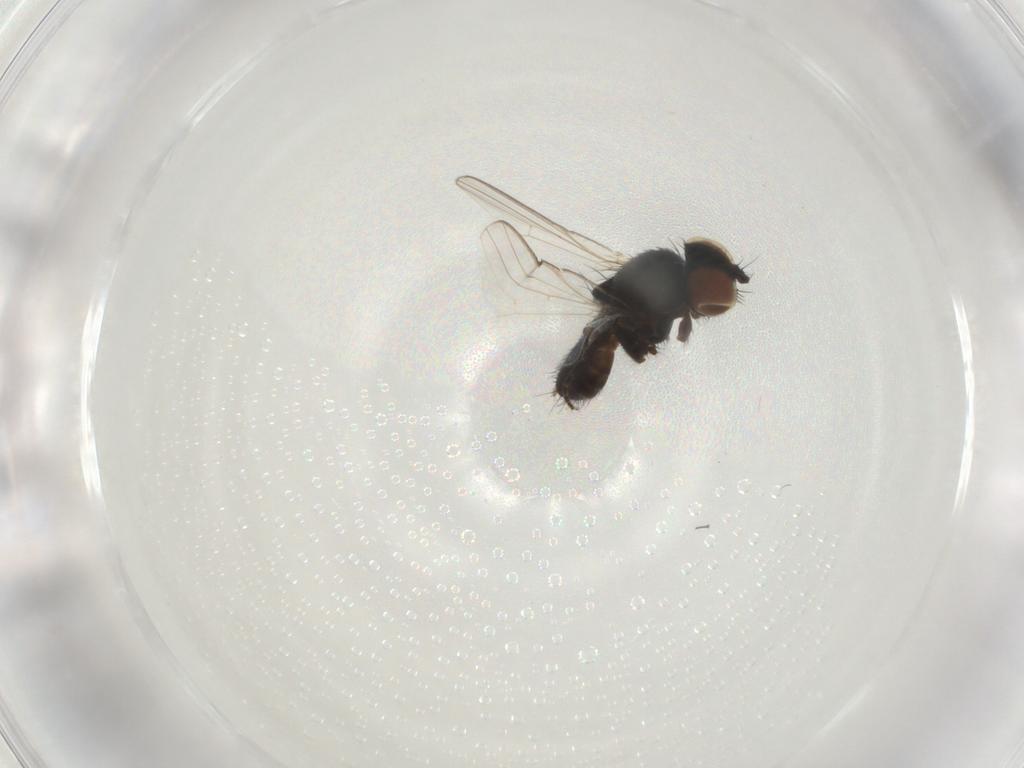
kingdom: Animalia
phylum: Arthropoda
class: Insecta
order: Diptera
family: Milichiidae
